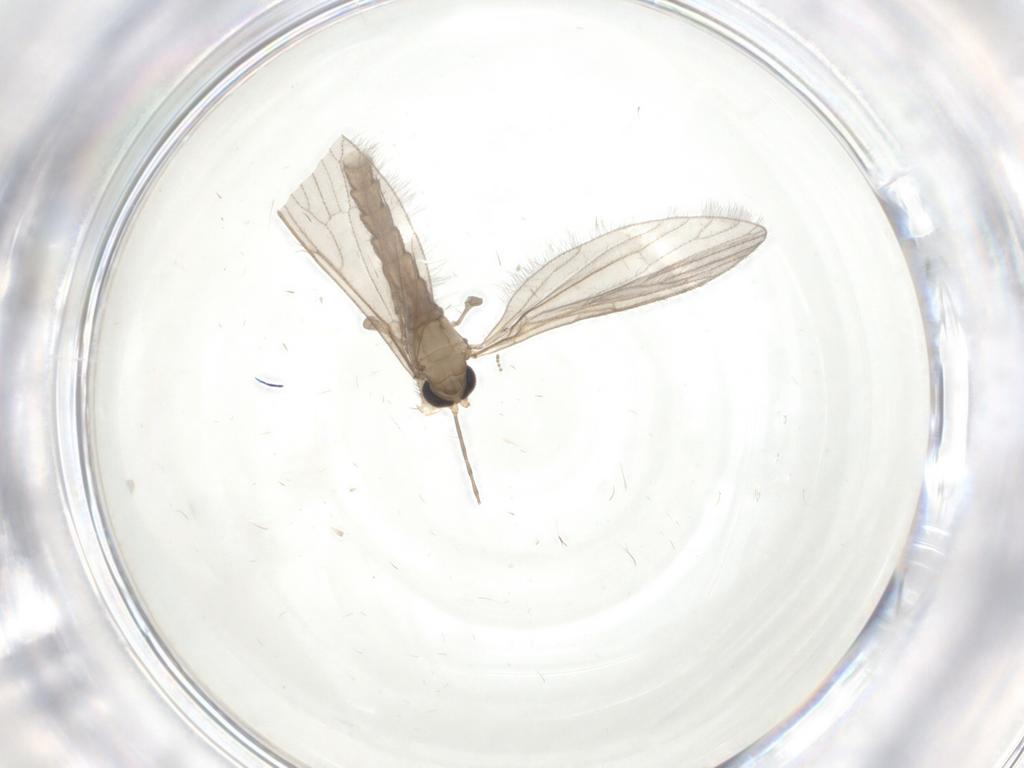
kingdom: Animalia
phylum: Arthropoda
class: Insecta
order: Diptera
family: Limoniidae
